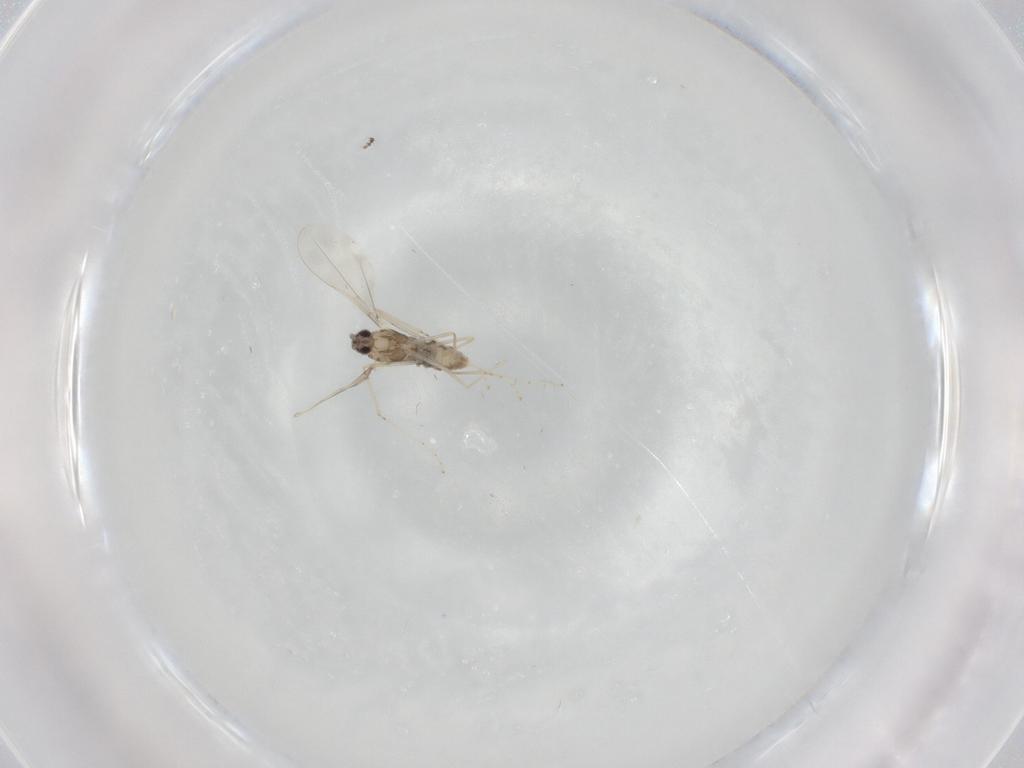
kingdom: Animalia
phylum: Arthropoda
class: Insecta
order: Diptera
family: Cecidomyiidae
